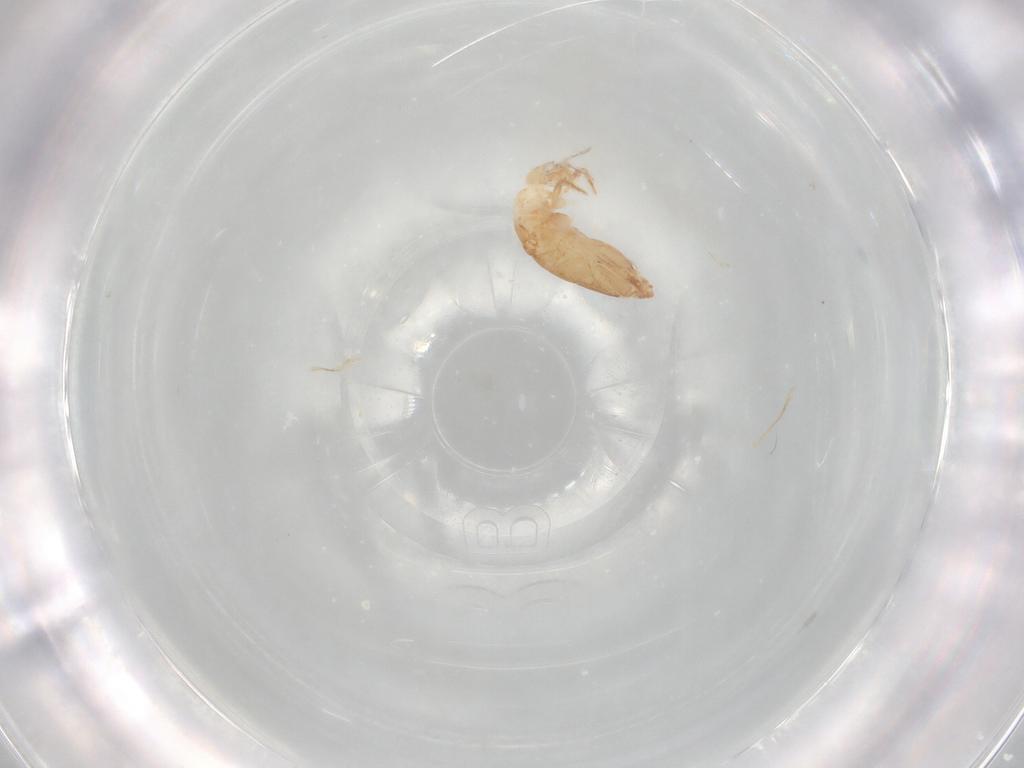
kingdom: Animalia
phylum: Arthropoda
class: Collembola
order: Entomobryomorpha
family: Entomobryidae
